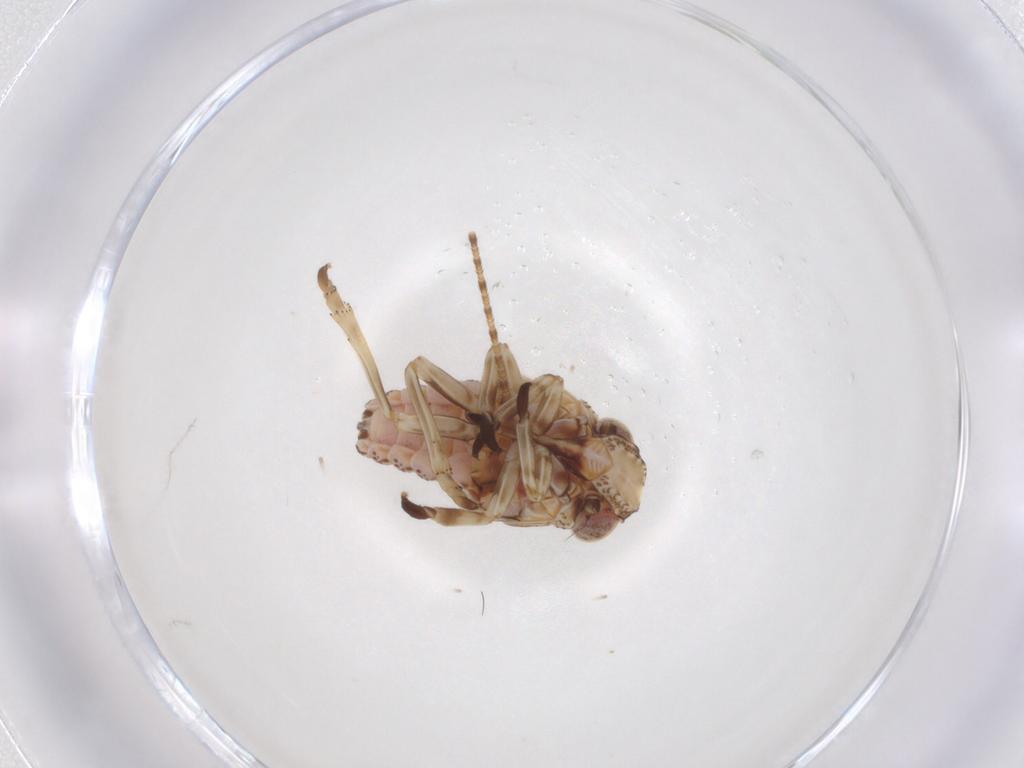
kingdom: Animalia
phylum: Arthropoda
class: Insecta
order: Hemiptera
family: Tropiduchidae
